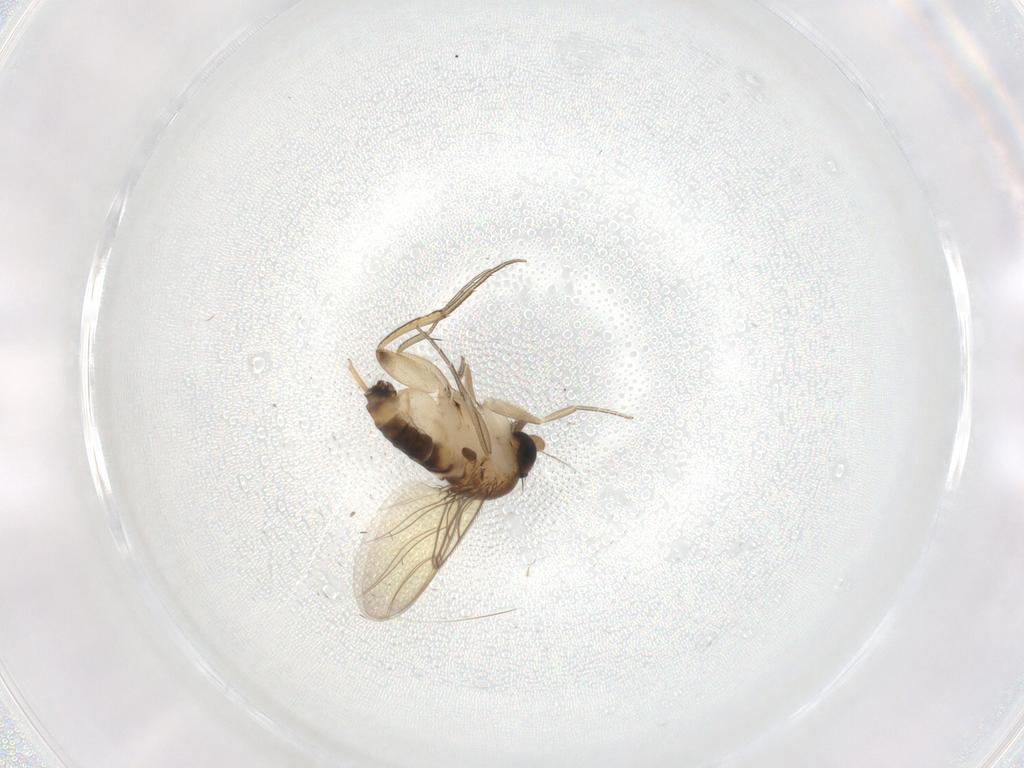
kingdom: Animalia
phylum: Arthropoda
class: Insecta
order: Diptera
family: Phoridae
